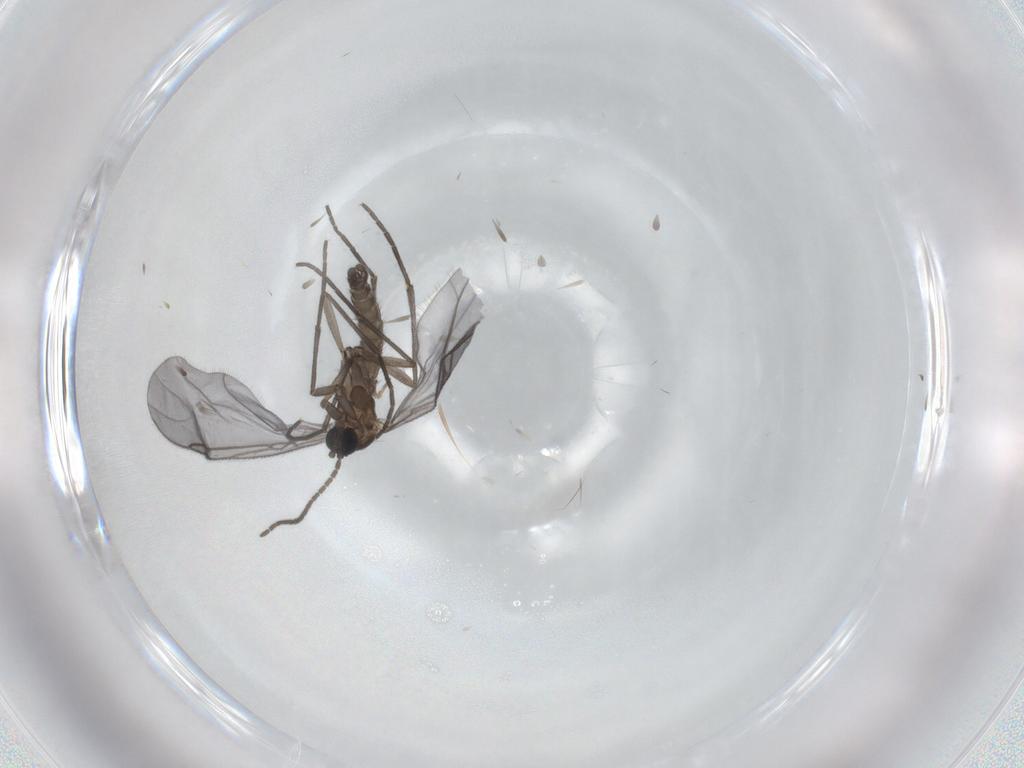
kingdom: Animalia
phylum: Arthropoda
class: Insecta
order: Diptera
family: Sciaridae
